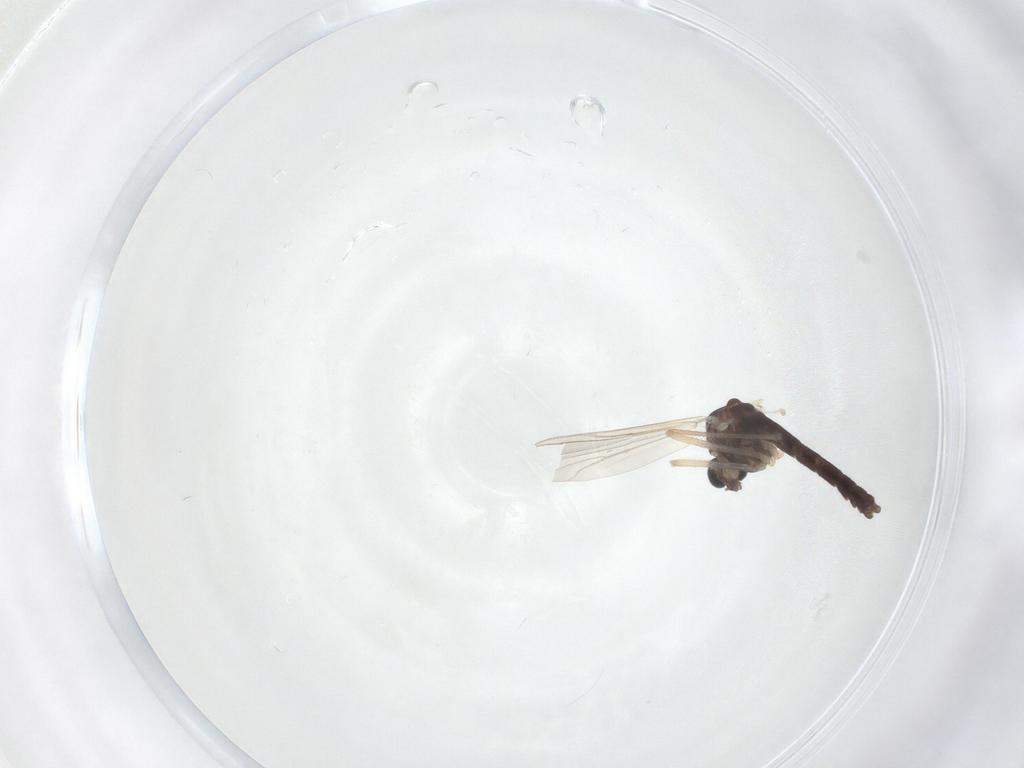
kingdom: Animalia
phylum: Arthropoda
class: Insecta
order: Diptera
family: Chironomidae
